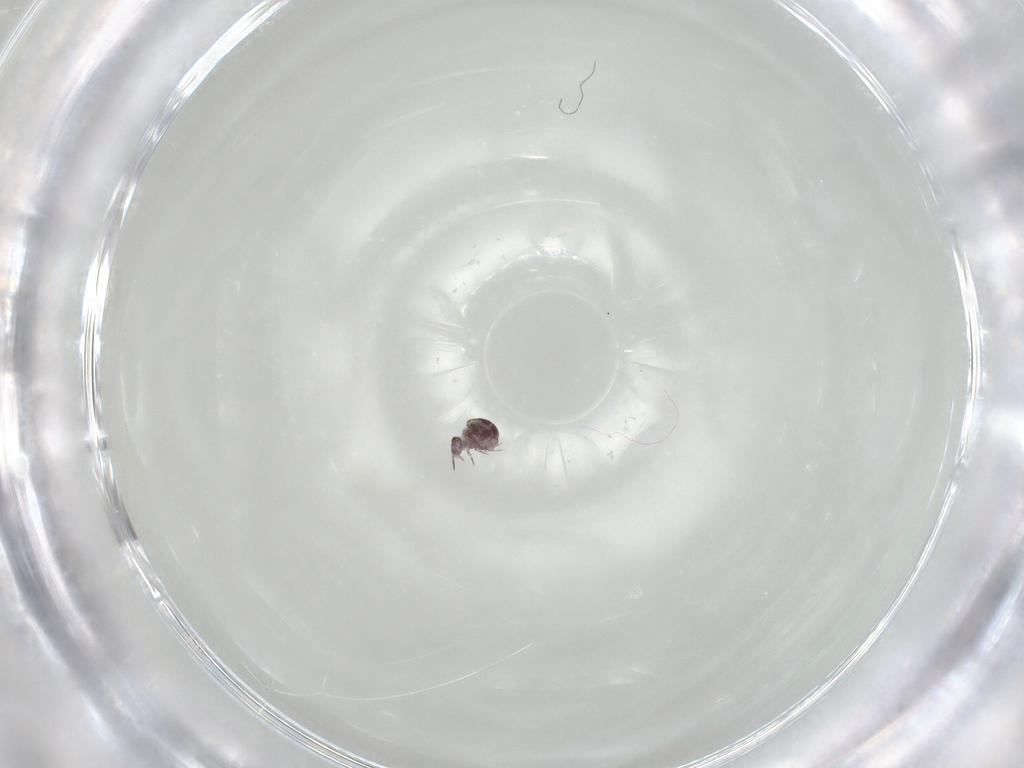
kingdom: Animalia
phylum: Arthropoda
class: Collembola
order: Symphypleona
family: Sminthurididae
